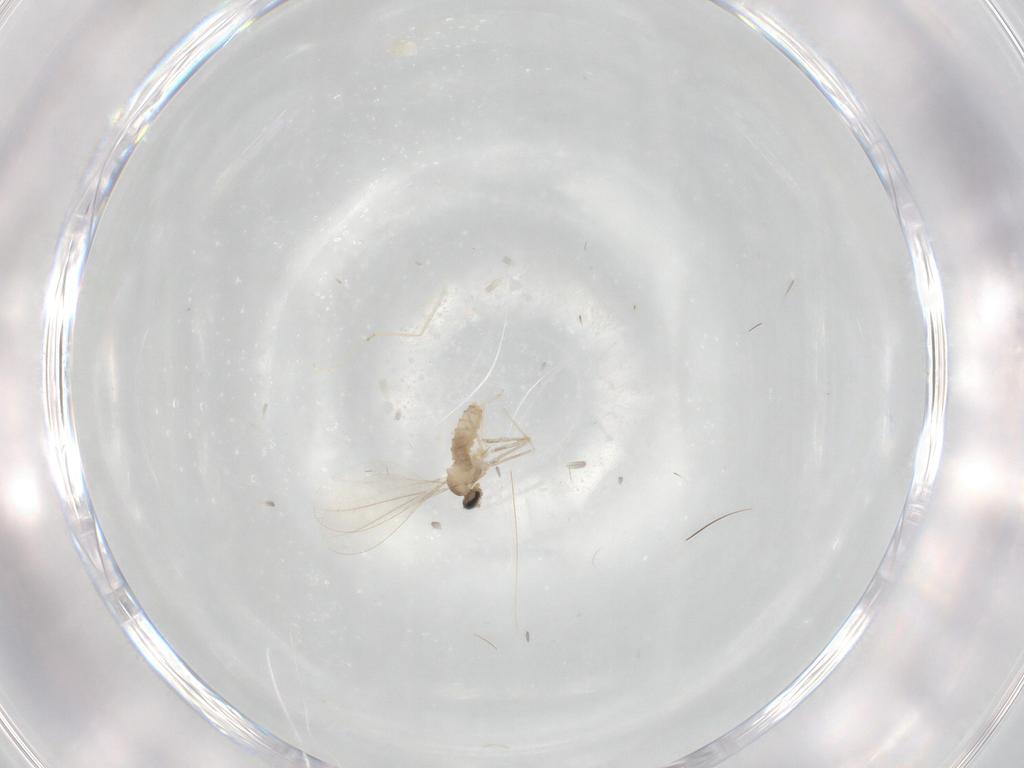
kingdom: Animalia
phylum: Arthropoda
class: Insecta
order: Diptera
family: Cecidomyiidae
